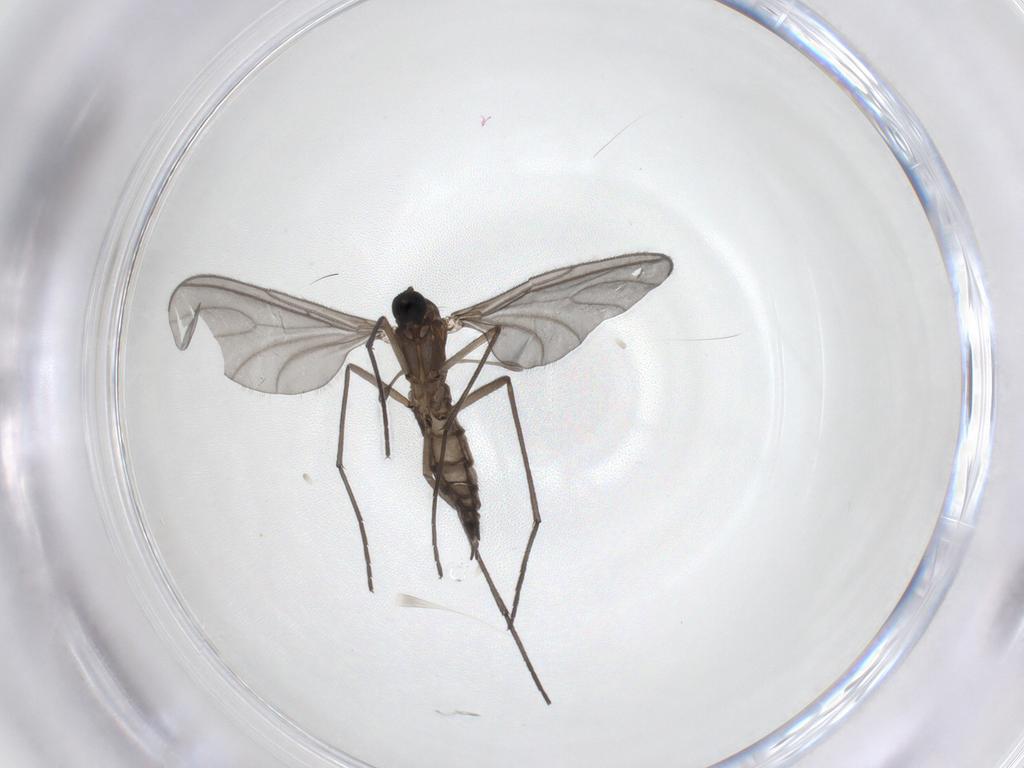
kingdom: Animalia
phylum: Arthropoda
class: Insecta
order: Diptera
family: Sciaridae
